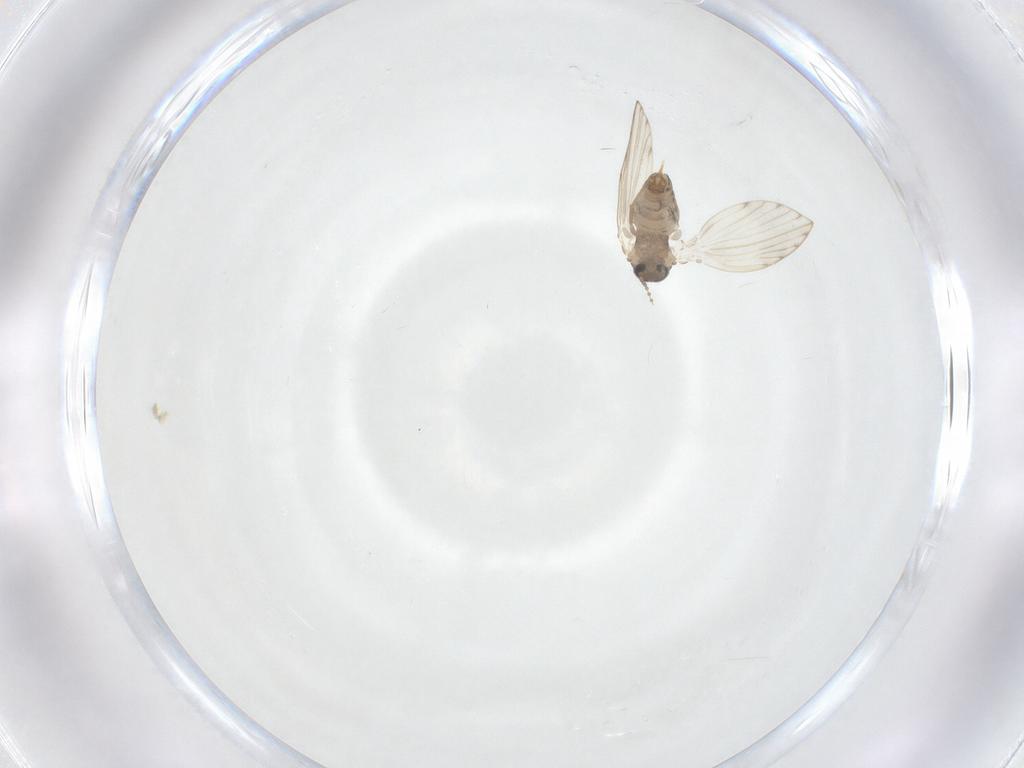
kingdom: Animalia
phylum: Arthropoda
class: Insecta
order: Diptera
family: Psychodidae
